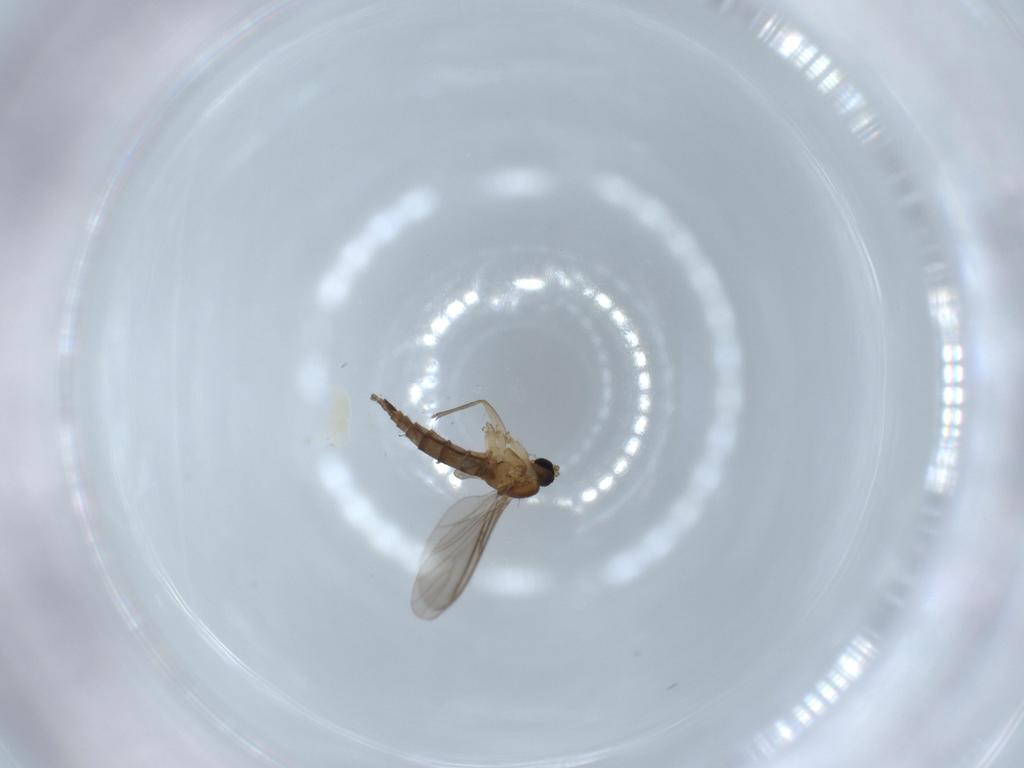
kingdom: Animalia
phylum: Arthropoda
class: Insecta
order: Diptera
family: Sciaridae
